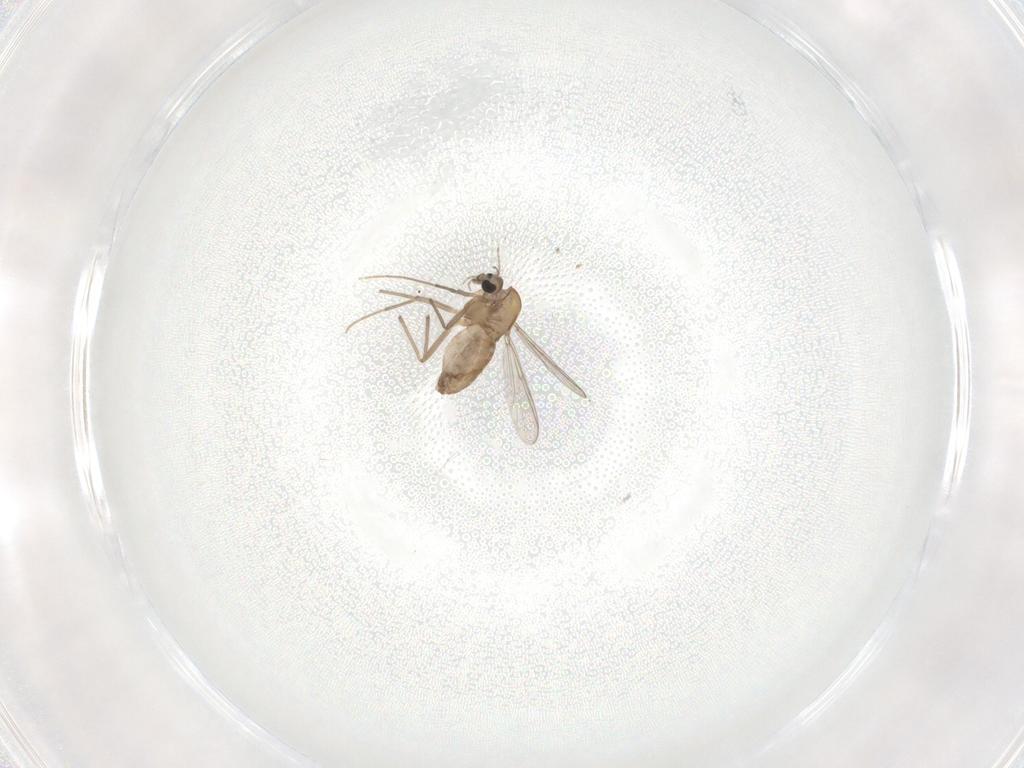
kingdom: Animalia
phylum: Arthropoda
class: Insecta
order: Diptera
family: Chironomidae
